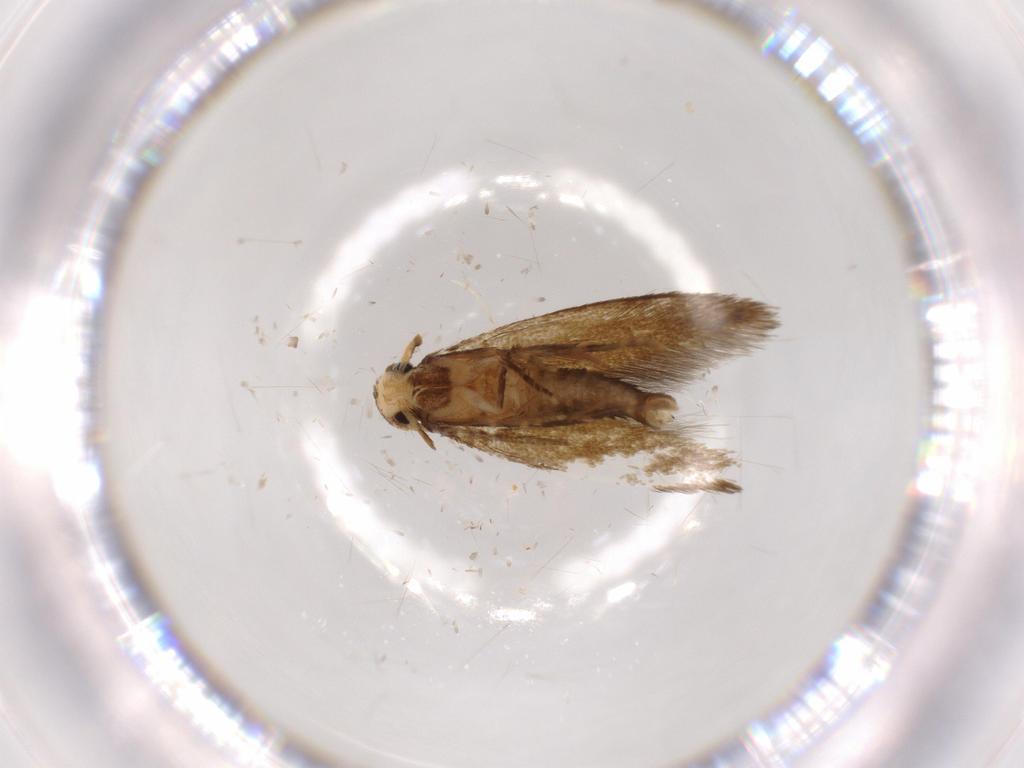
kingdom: Animalia
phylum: Arthropoda
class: Insecta
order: Lepidoptera
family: Tineidae
